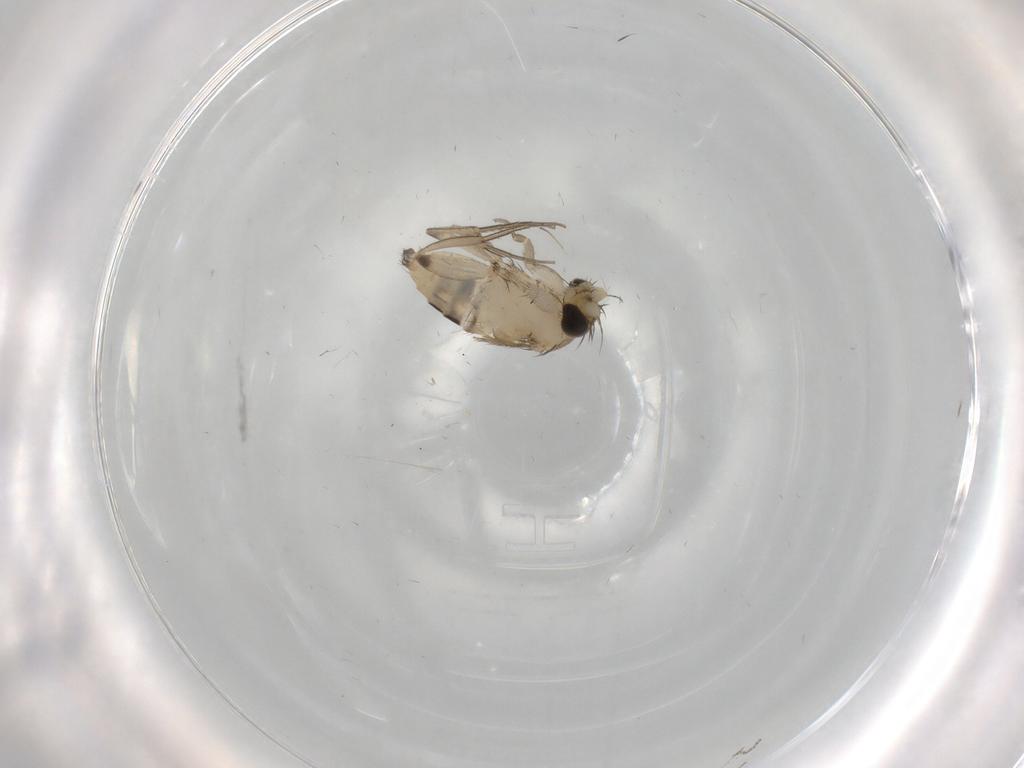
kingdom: Animalia
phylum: Arthropoda
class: Insecta
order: Diptera
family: Phoridae
